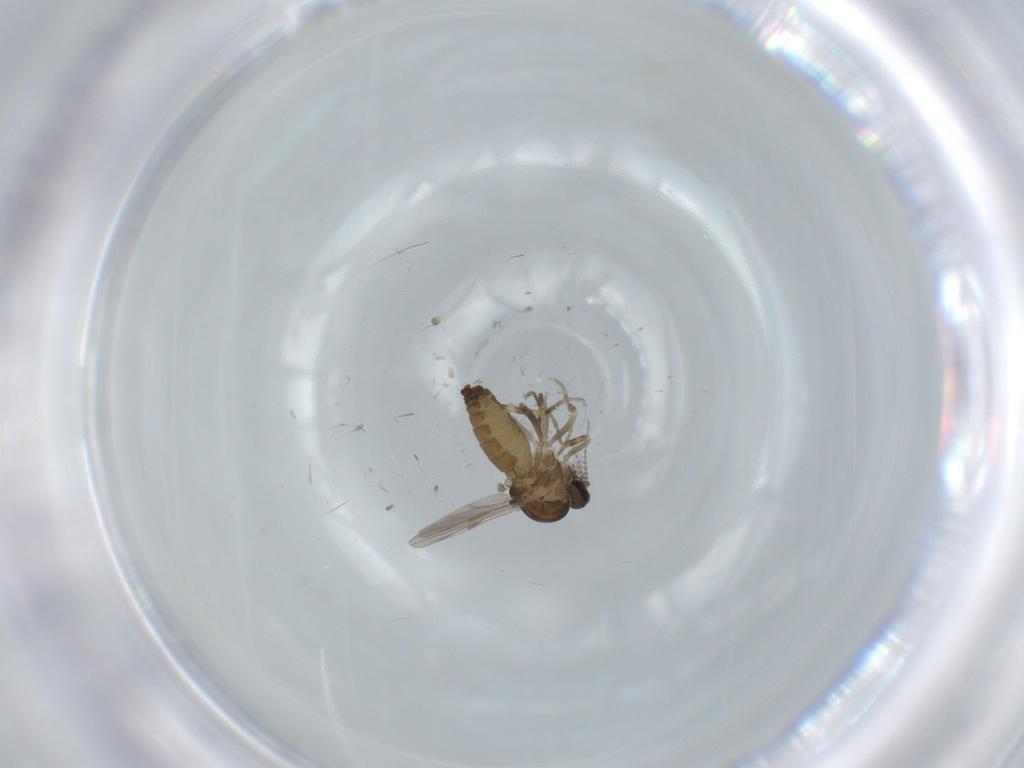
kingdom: Animalia
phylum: Arthropoda
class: Insecta
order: Diptera
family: Ceratopogonidae
